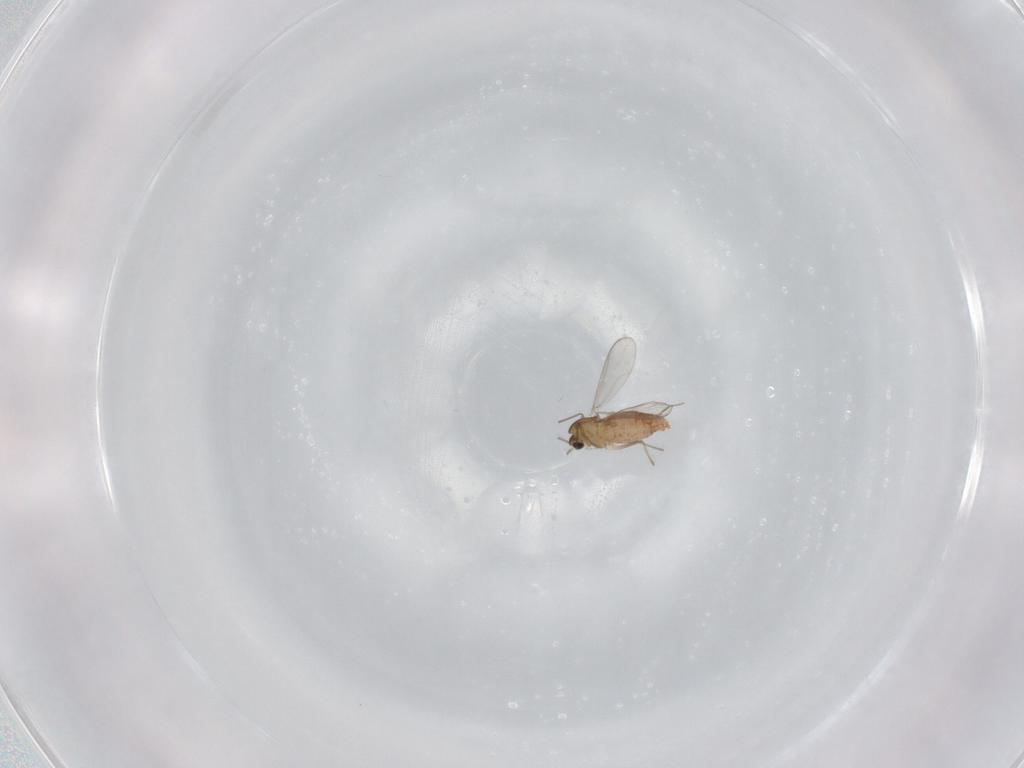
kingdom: Animalia
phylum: Arthropoda
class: Insecta
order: Diptera
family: Chironomidae
